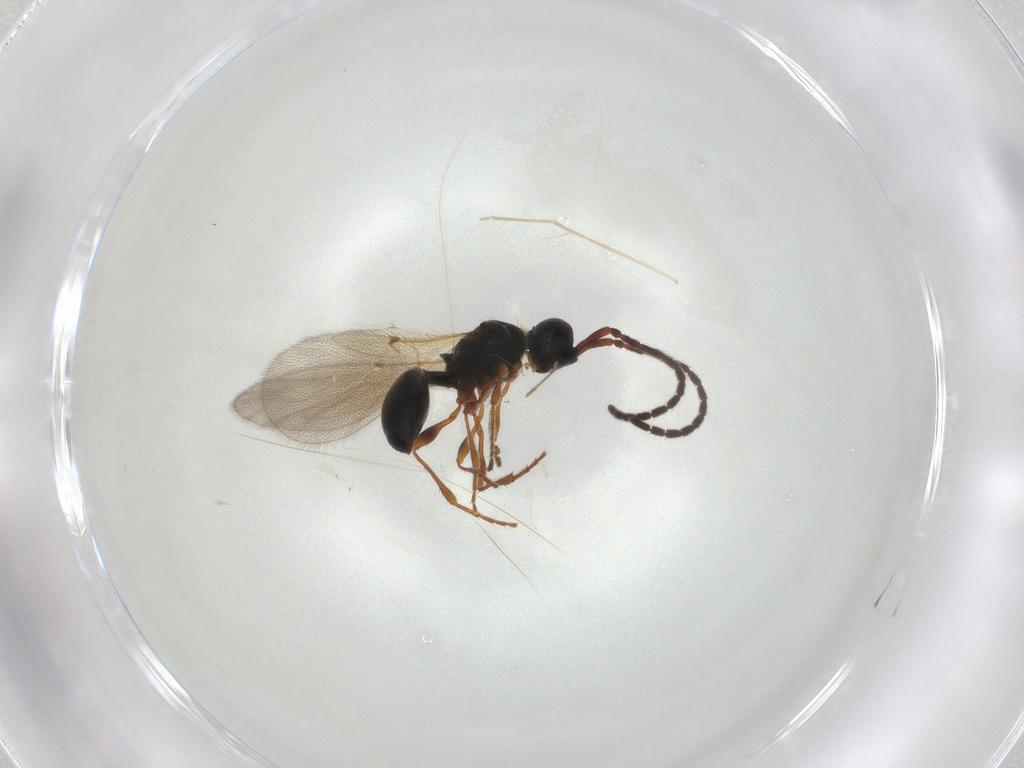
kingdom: Animalia
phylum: Arthropoda
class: Insecta
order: Hymenoptera
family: Diapriidae
